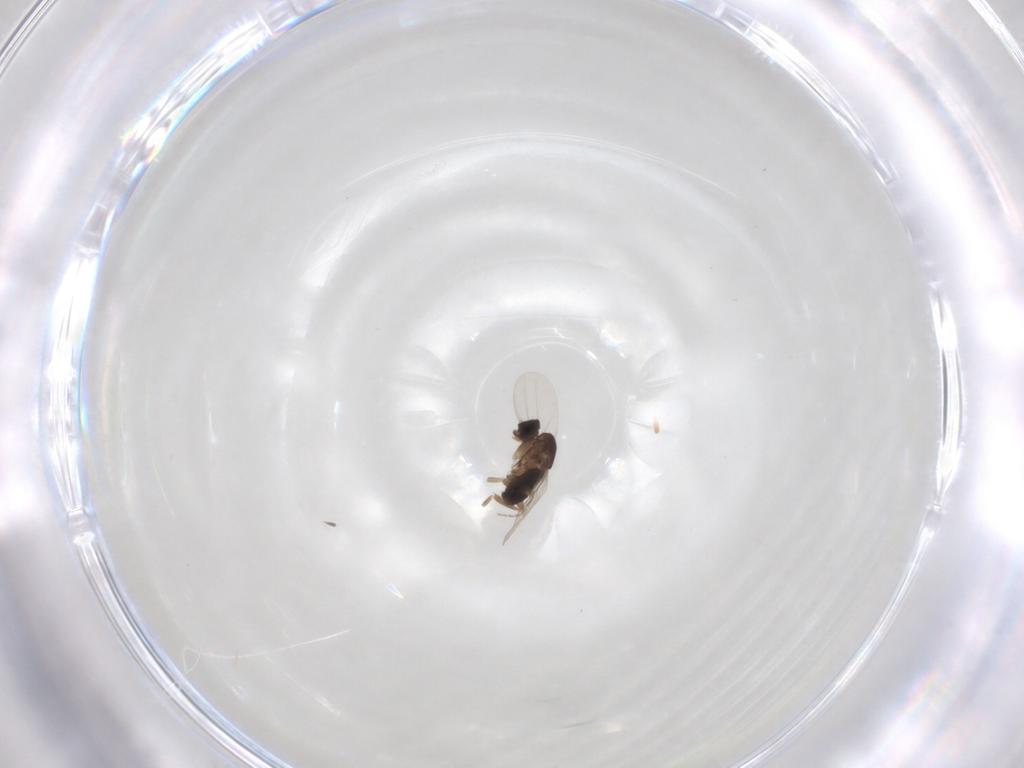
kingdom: Animalia
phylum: Arthropoda
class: Insecta
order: Diptera
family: Phoridae
